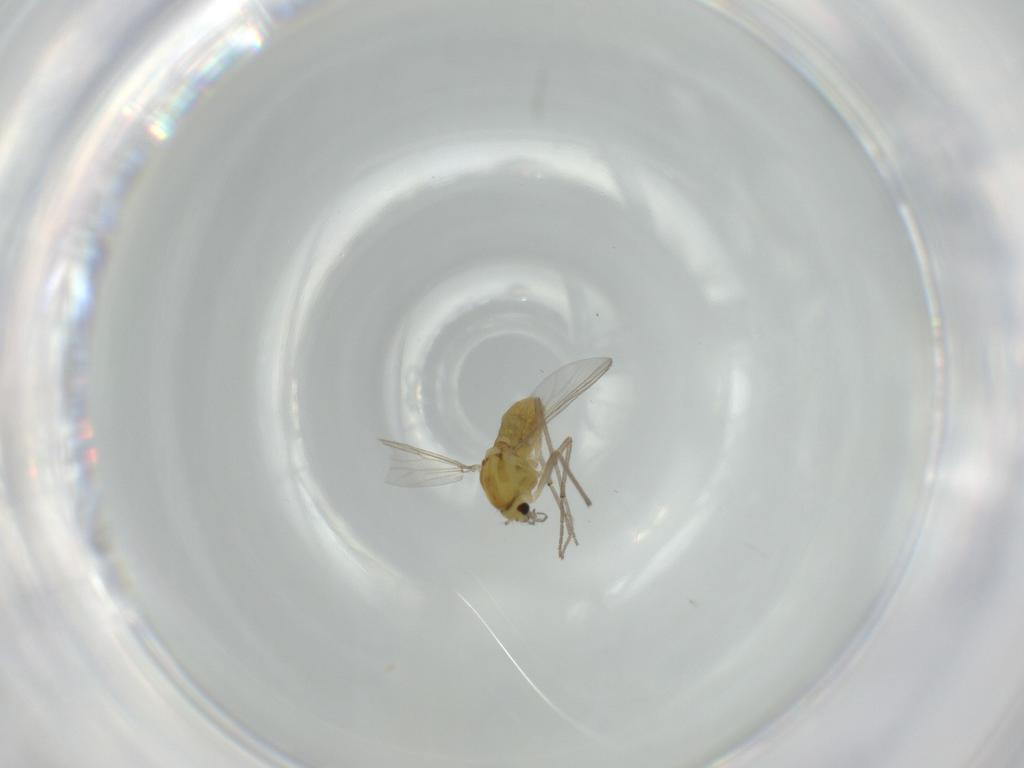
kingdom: Animalia
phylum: Arthropoda
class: Insecta
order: Diptera
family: Chironomidae
